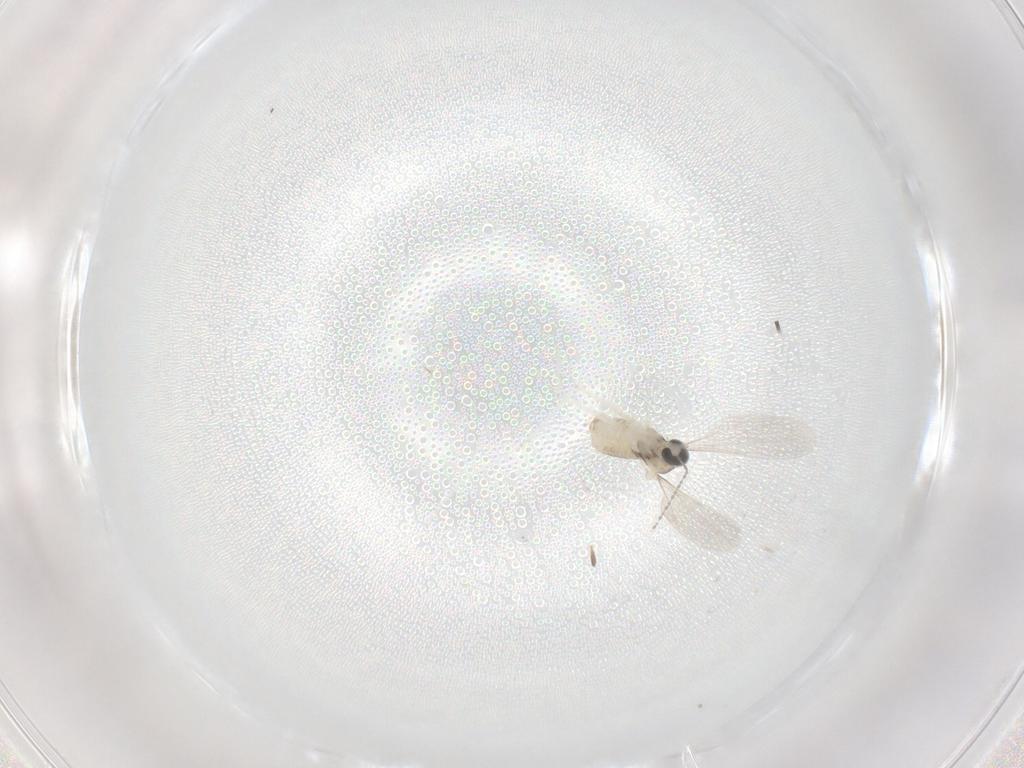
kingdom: Animalia
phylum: Arthropoda
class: Insecta
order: Diptera
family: Cecidomyiidae
